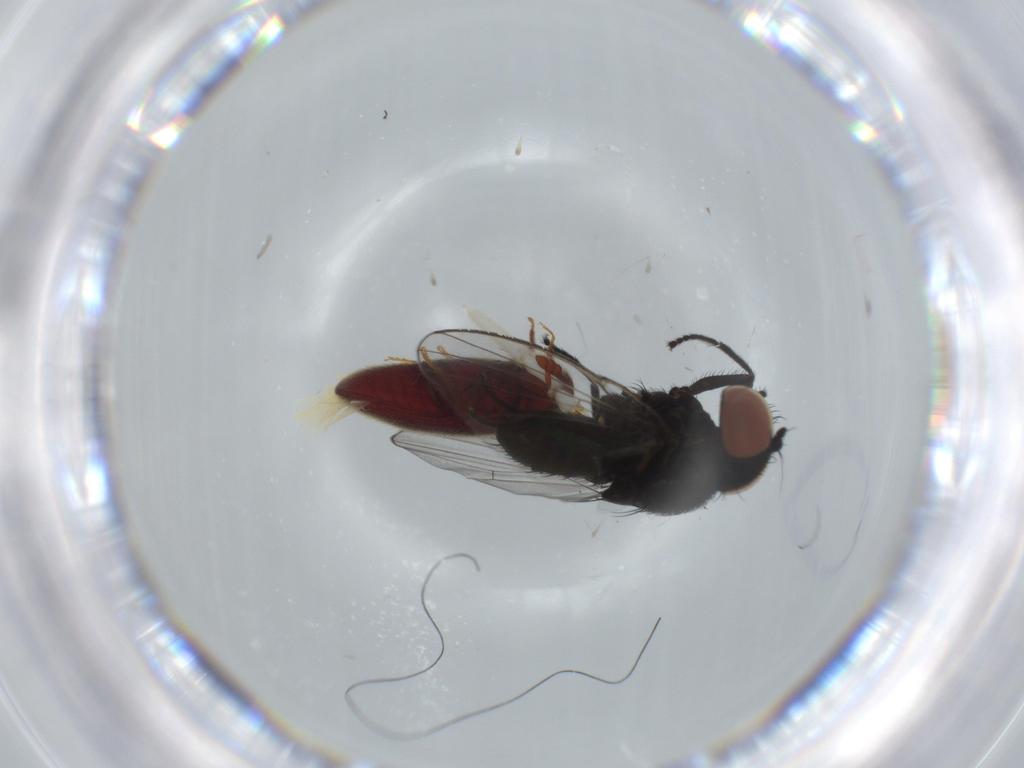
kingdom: Animalia
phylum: Arthropoda
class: Insecta
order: Diptera
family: Milichiidae
